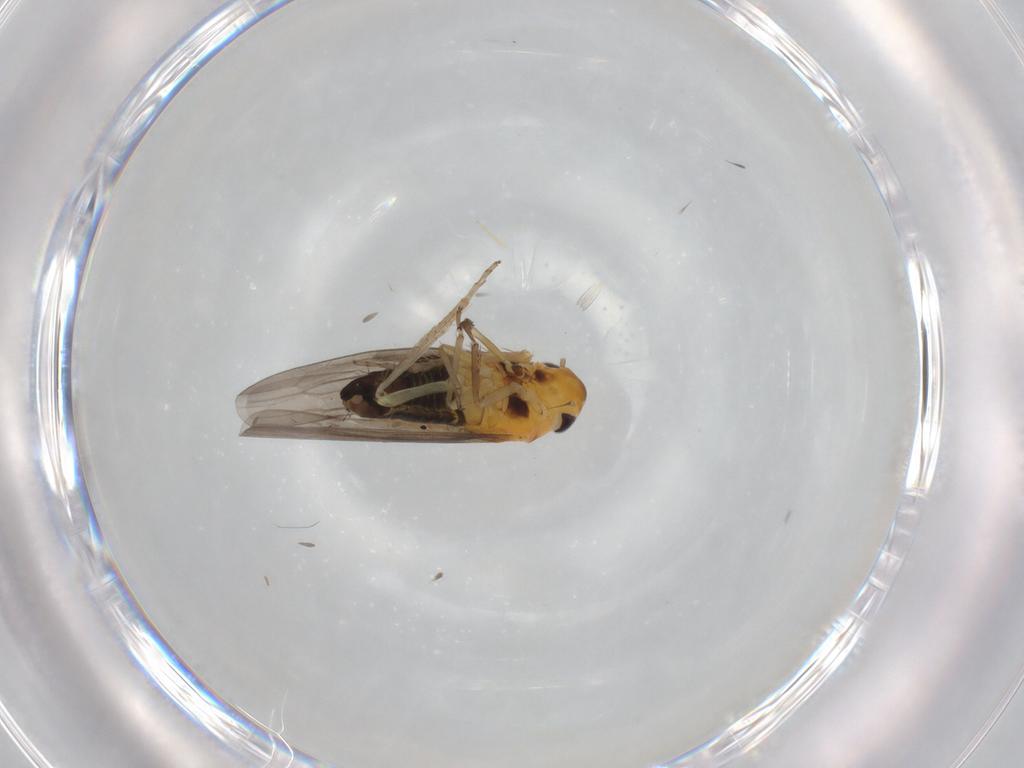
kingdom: Animalia
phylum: Arthropoda
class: Insecta
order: Hemiptera
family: Cicadellidae
